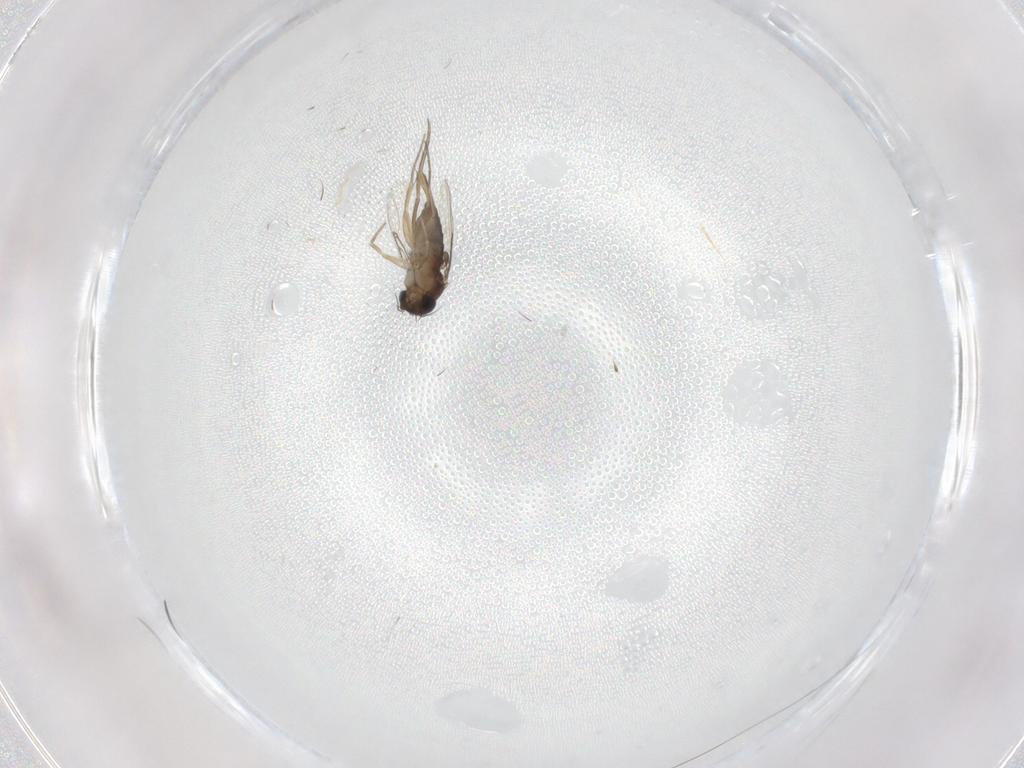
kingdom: Animalia
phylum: Arthropoda
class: Insecta
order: Diptera
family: Phoridae
